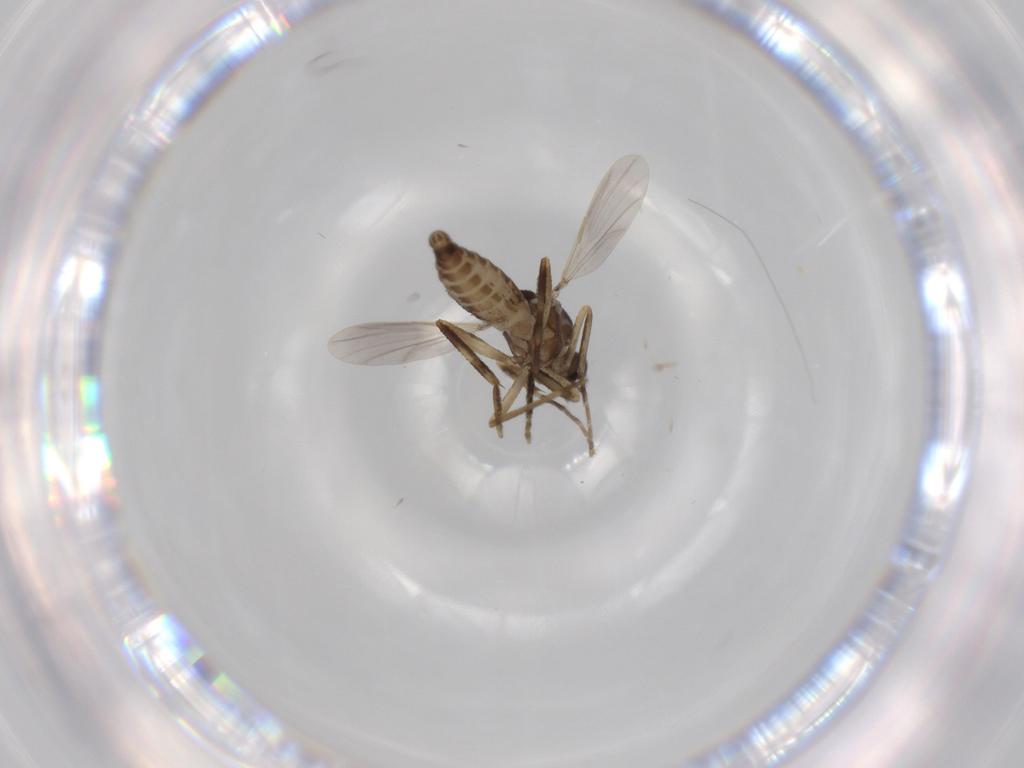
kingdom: Animalia
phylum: Arthropoda
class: Insecta
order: Diptera
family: Ceratopogonidae
